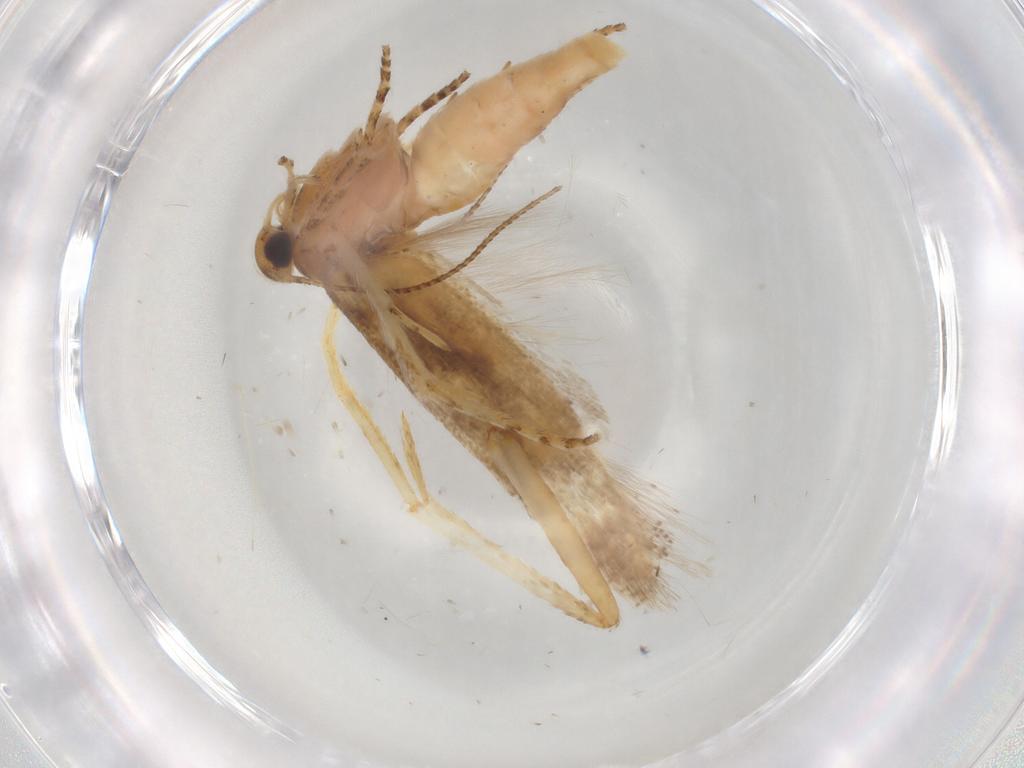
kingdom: Animalia
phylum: Arthropoda
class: Insecta
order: Lepidoptera
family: Gelechiidae
